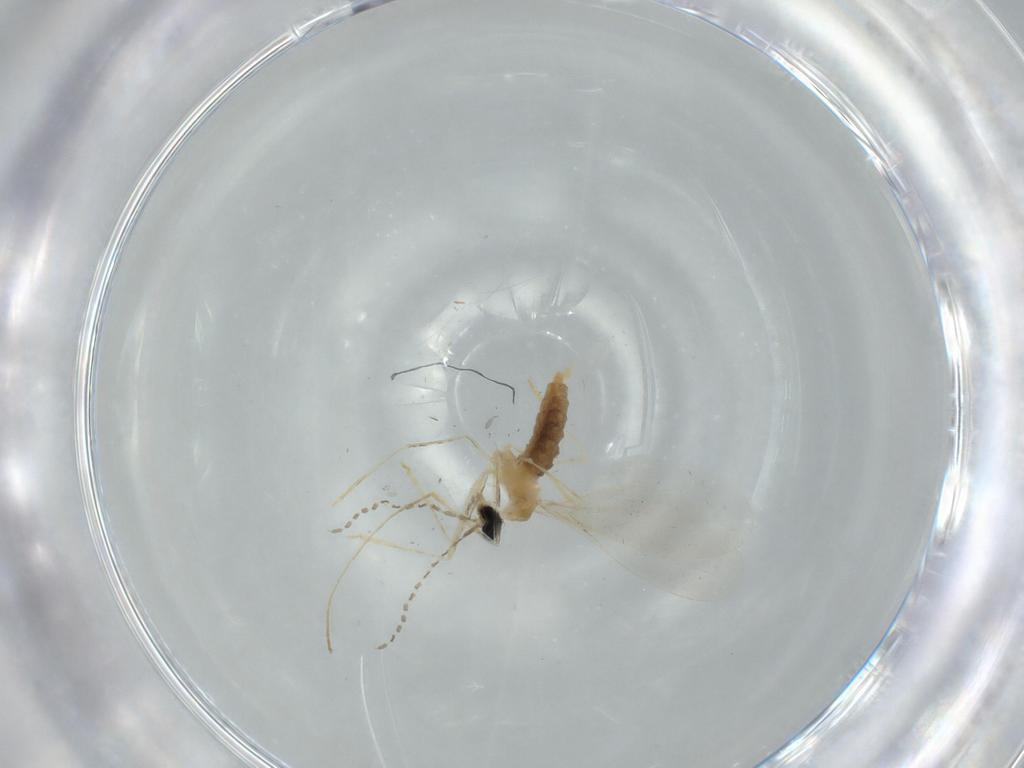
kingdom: Animalia
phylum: Arthropoda
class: Insecta
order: Diptera
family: Cecidomyiidae
